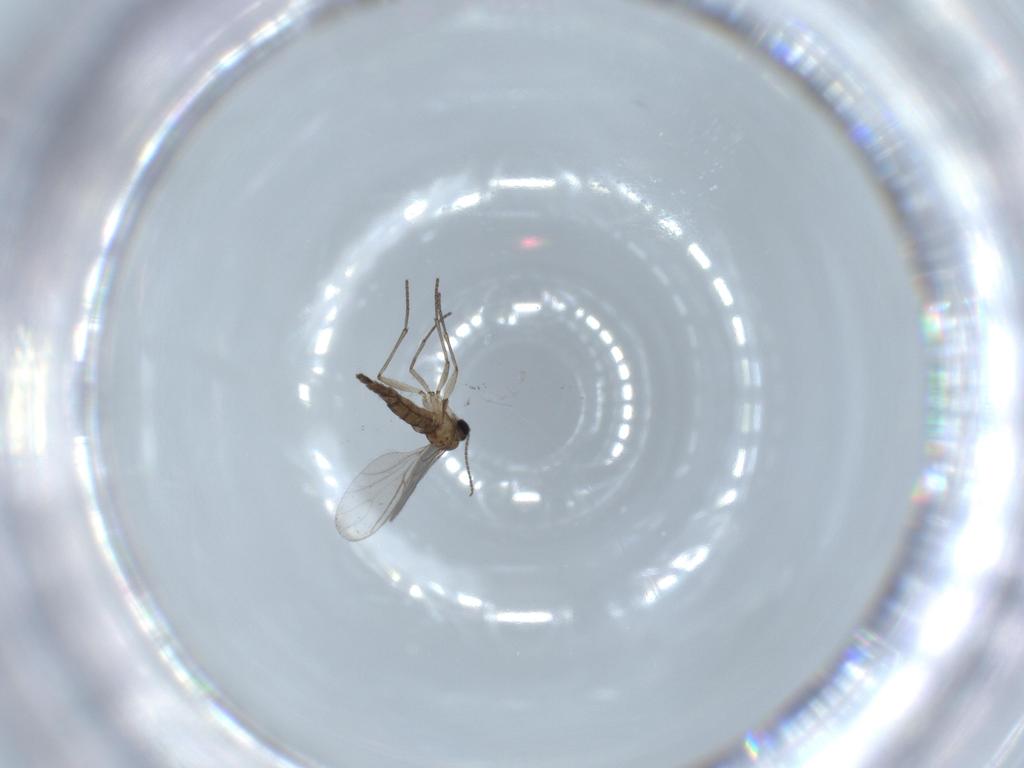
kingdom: Animalia
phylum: Arthropoda
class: Insecta
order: Diptera
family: Sciaridae
